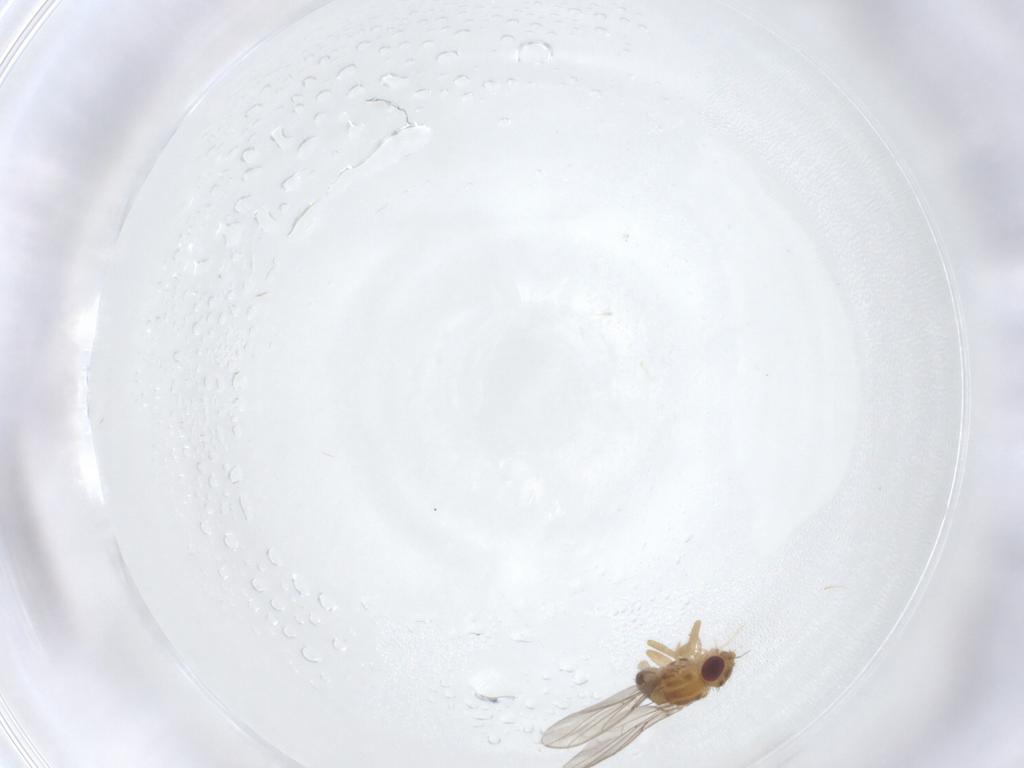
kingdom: Animalia
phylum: Arthropoda
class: Insecta
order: Diptera
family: Chloropidae
